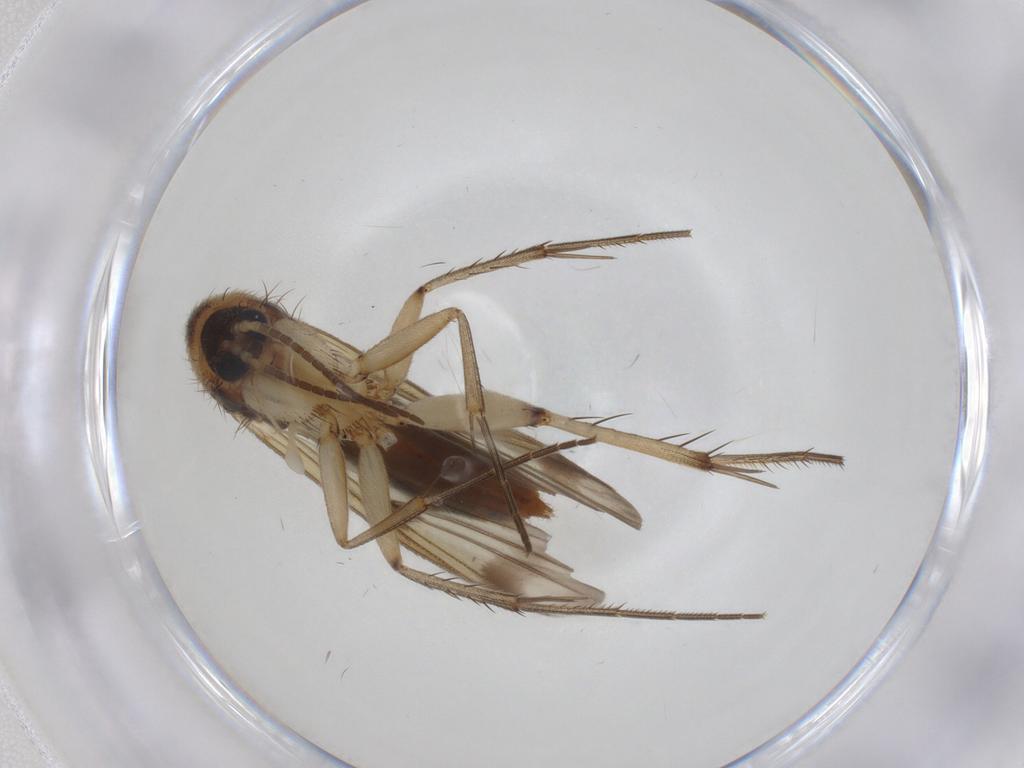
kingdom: Animalia
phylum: Arthropoda
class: Insecta
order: Diptera
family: Mycetophilidae
